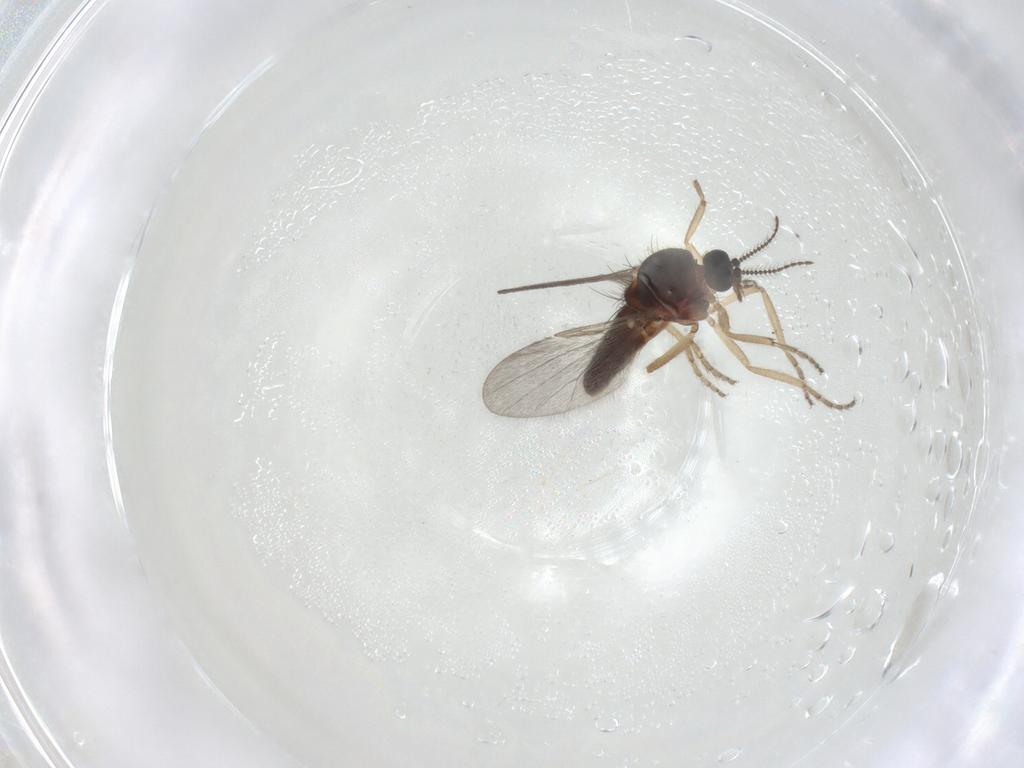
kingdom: Animalia
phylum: Arthropoda
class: Insecta
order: Diptera
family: Ceratopogonidae
